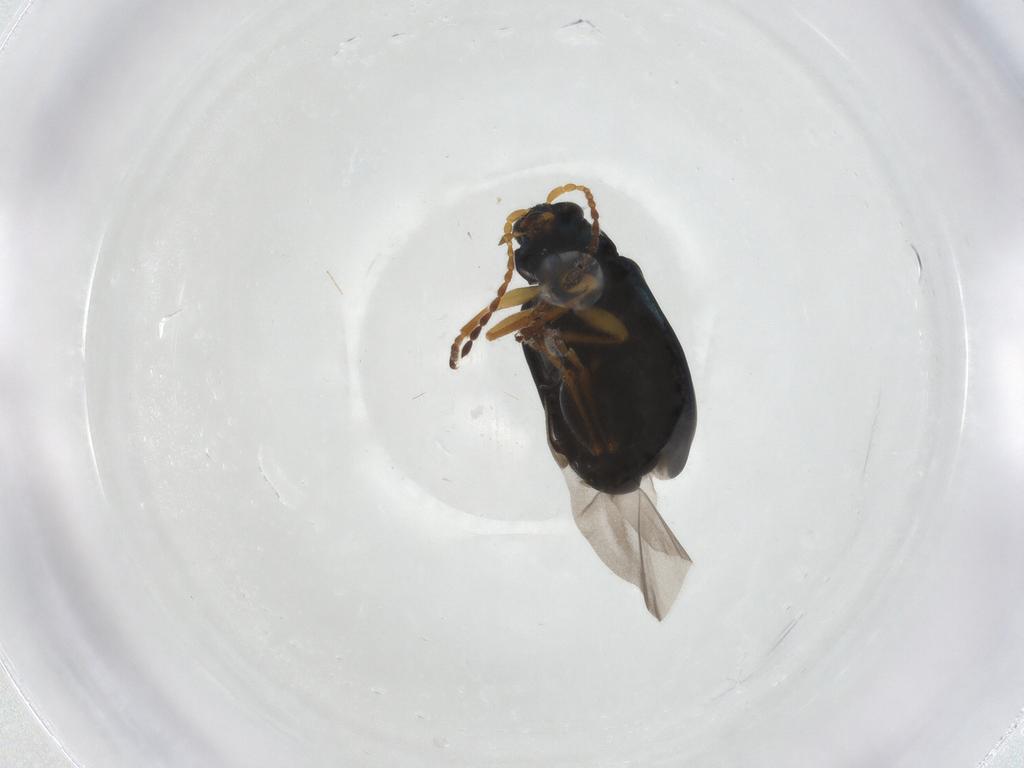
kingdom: Animalia
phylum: Arthropoda
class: Insecta
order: Coleoptera
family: Chrysomelidae
